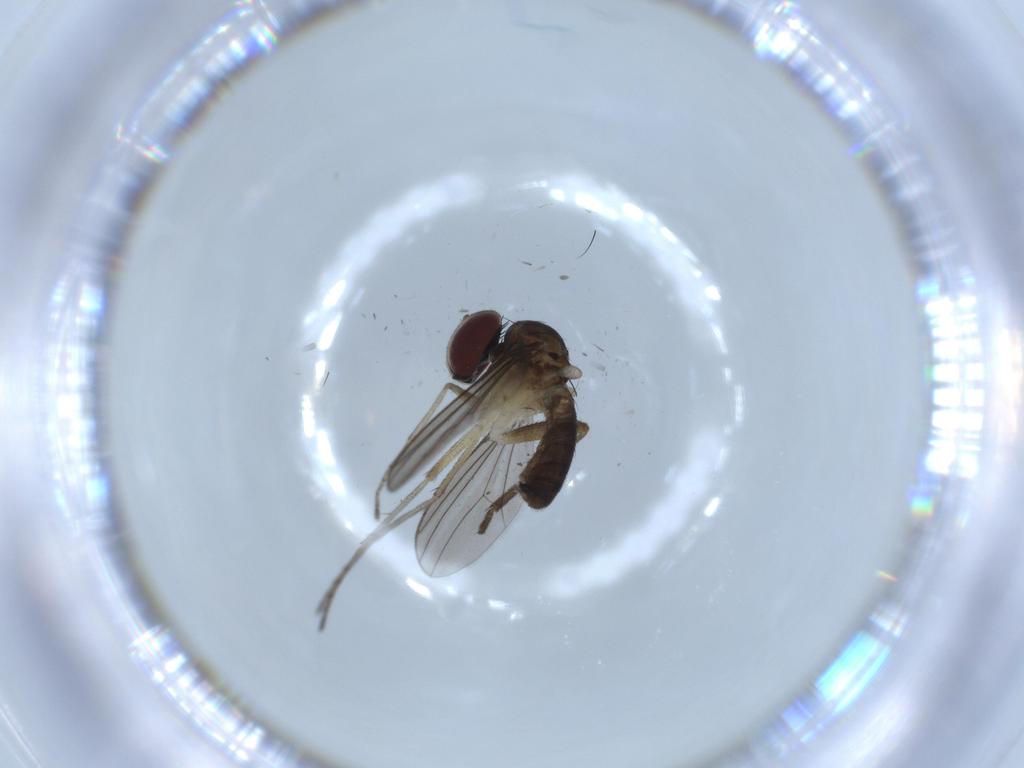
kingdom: Animalia
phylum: Arthropoda
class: Insecta
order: Diptera
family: Dolichopodidae
